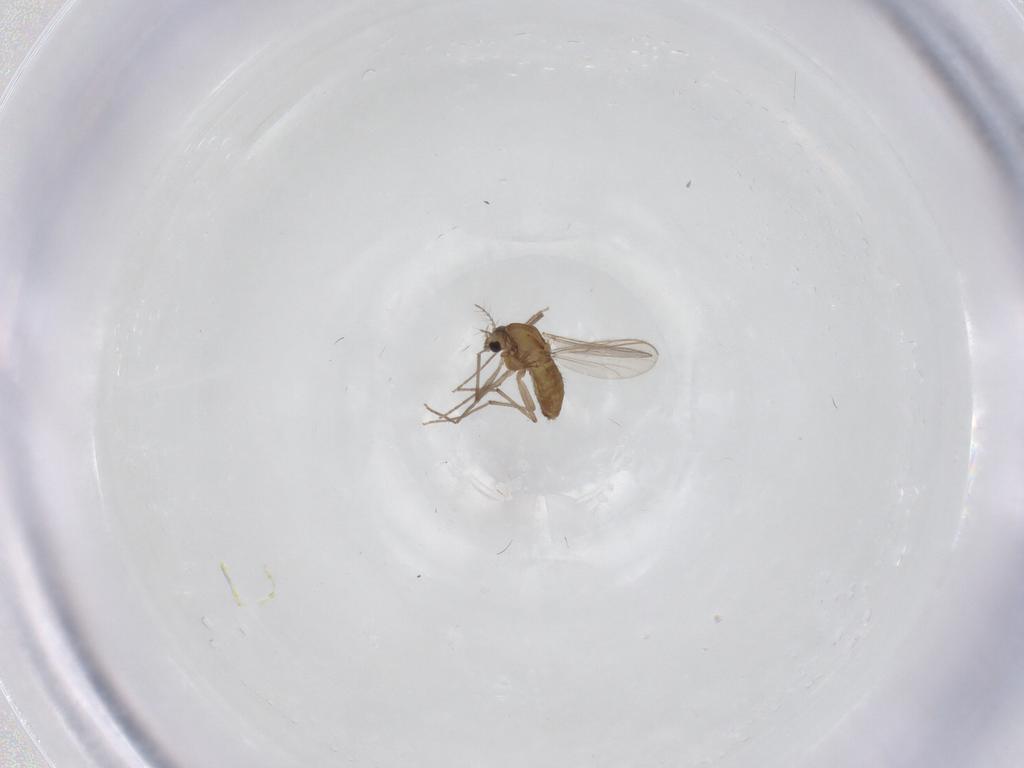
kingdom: Animalia
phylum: Arthropoda
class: Insecta
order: Diptera
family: Chironomidae
